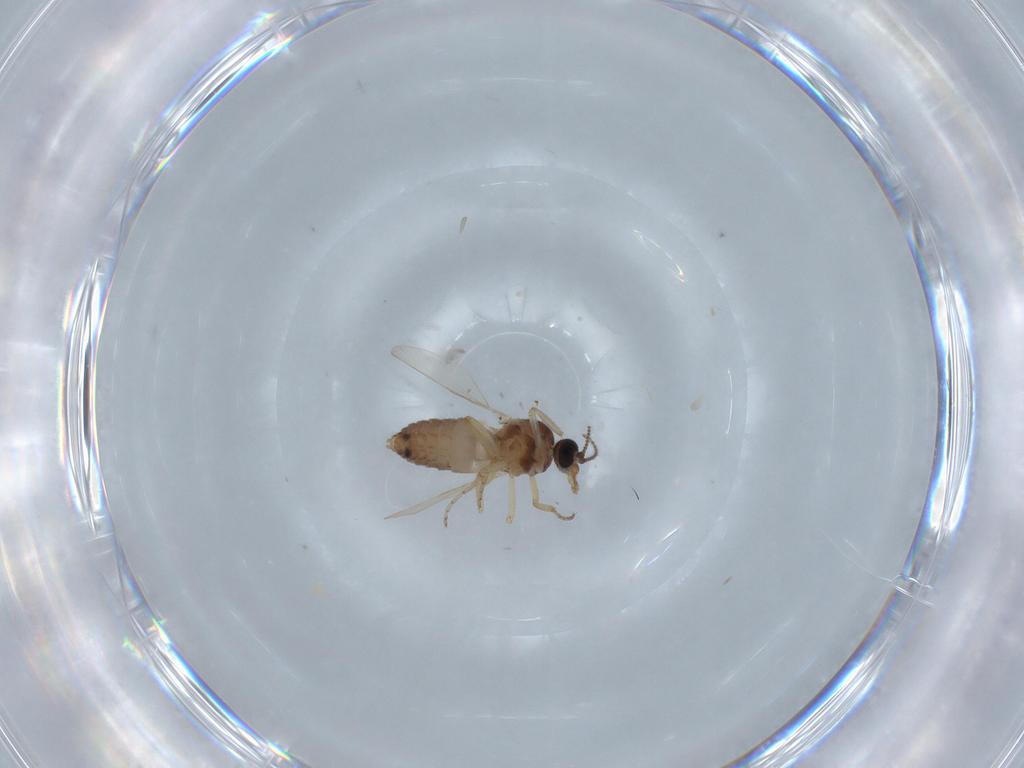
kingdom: Animalia
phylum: Arthropoda
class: Insecta
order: Diptera
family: Ceratopogonidae
